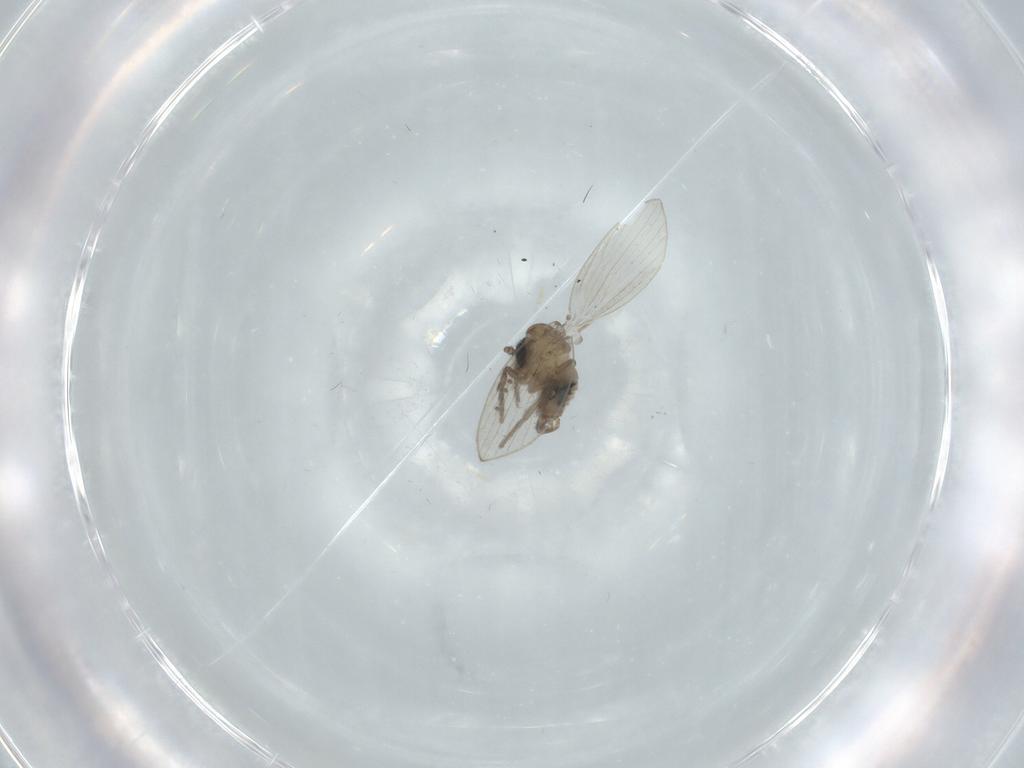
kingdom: Animalia
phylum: Arthropoda
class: Insecta
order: Diptera
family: Psychodidae
